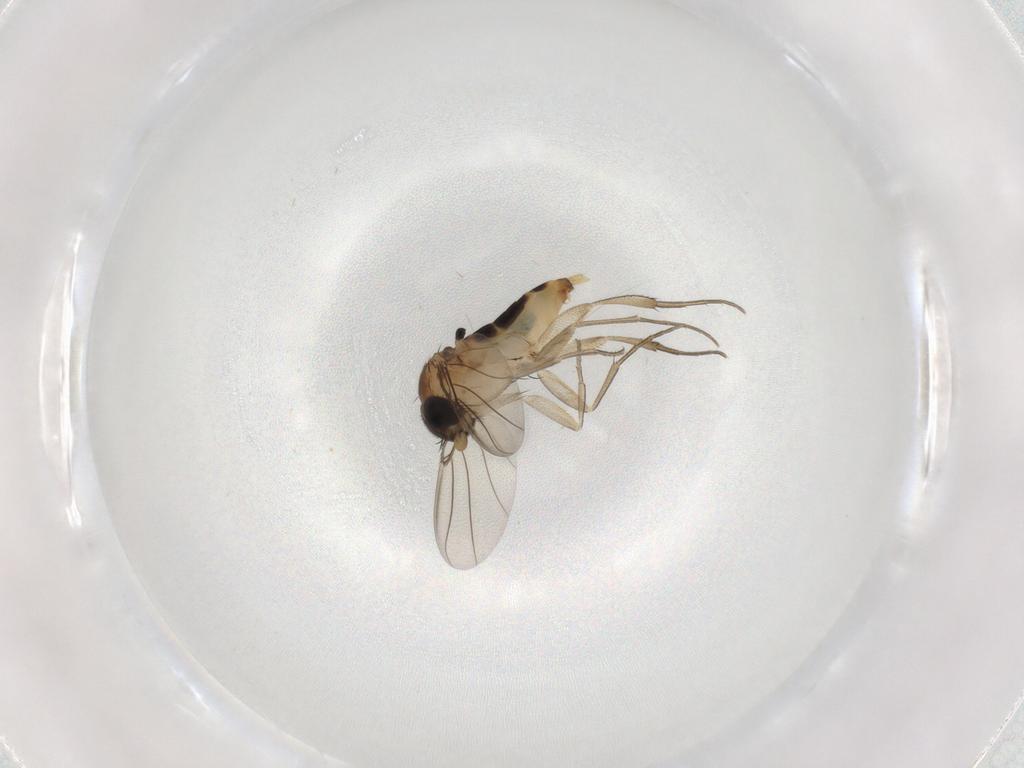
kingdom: Animalia
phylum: Arthropoda
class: Insecta
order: Diptera
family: Phoridae
